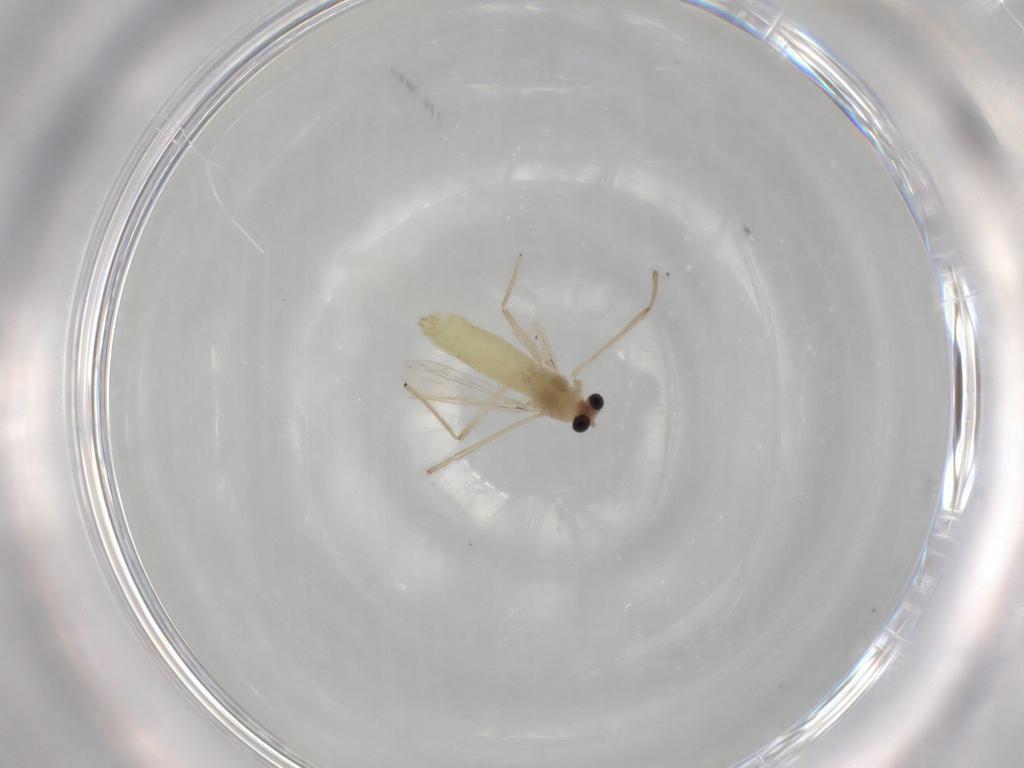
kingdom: Animalia
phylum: Arthropoda
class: Insecta
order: Diptera
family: Chironomidae
